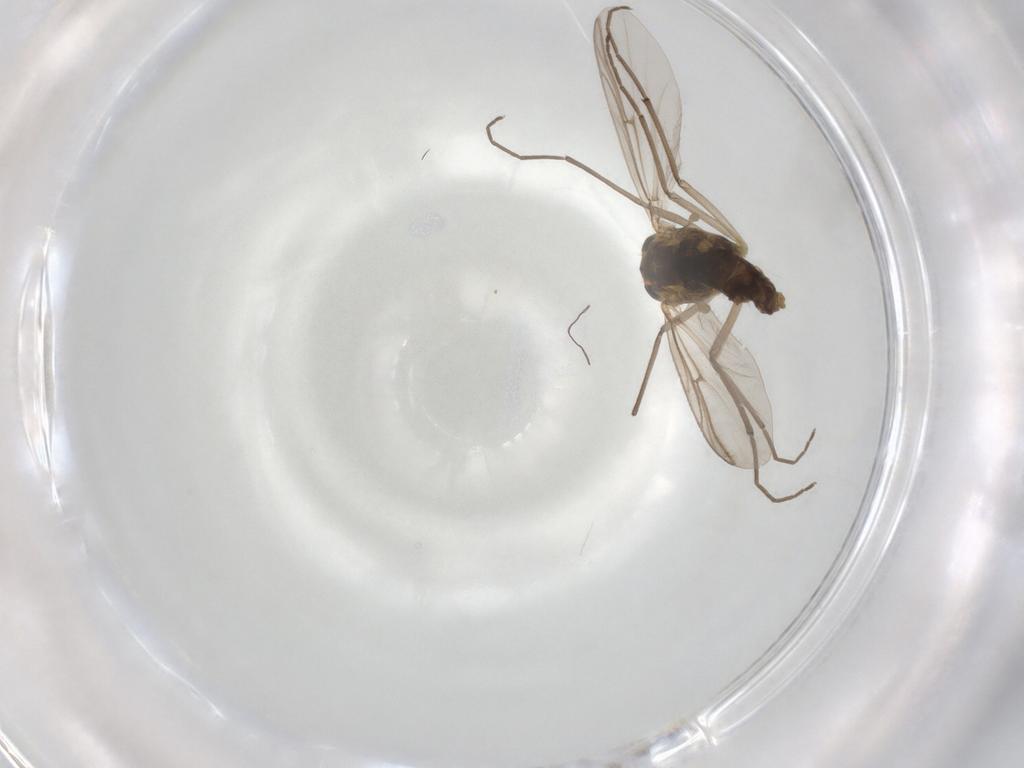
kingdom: Animalia
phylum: Arthropoda
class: Insecta
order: Diptera
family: Chironomidae
